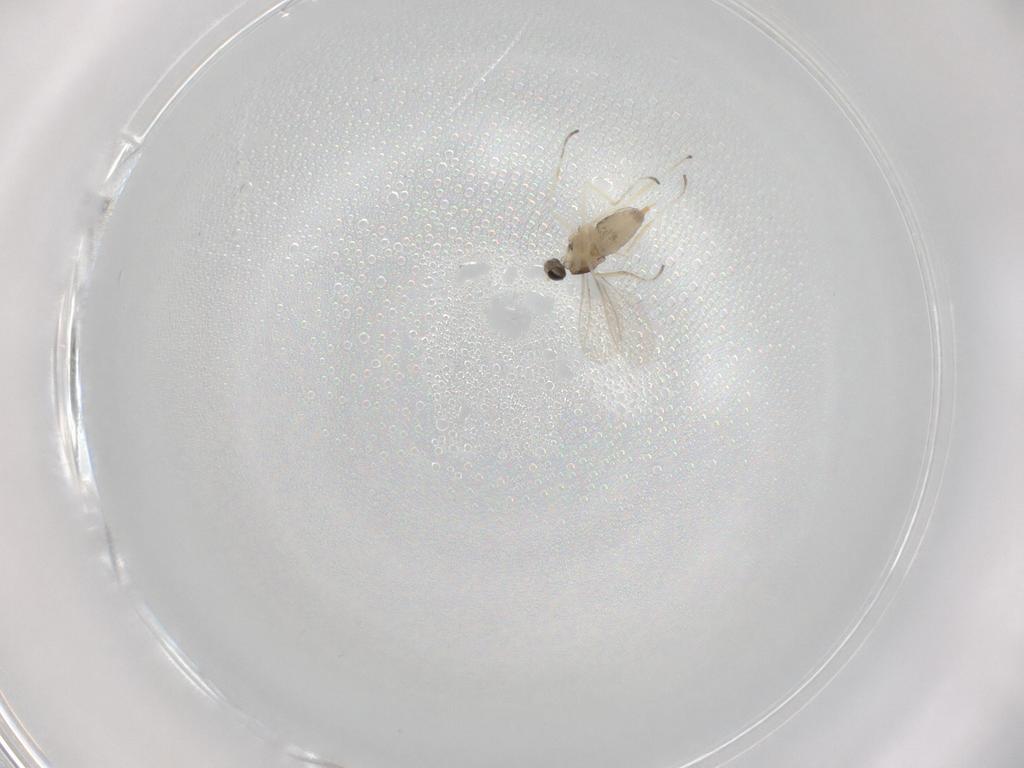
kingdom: Animalia
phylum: Arthropoda
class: Insecta
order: Diptera
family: Cecidomyiidae
